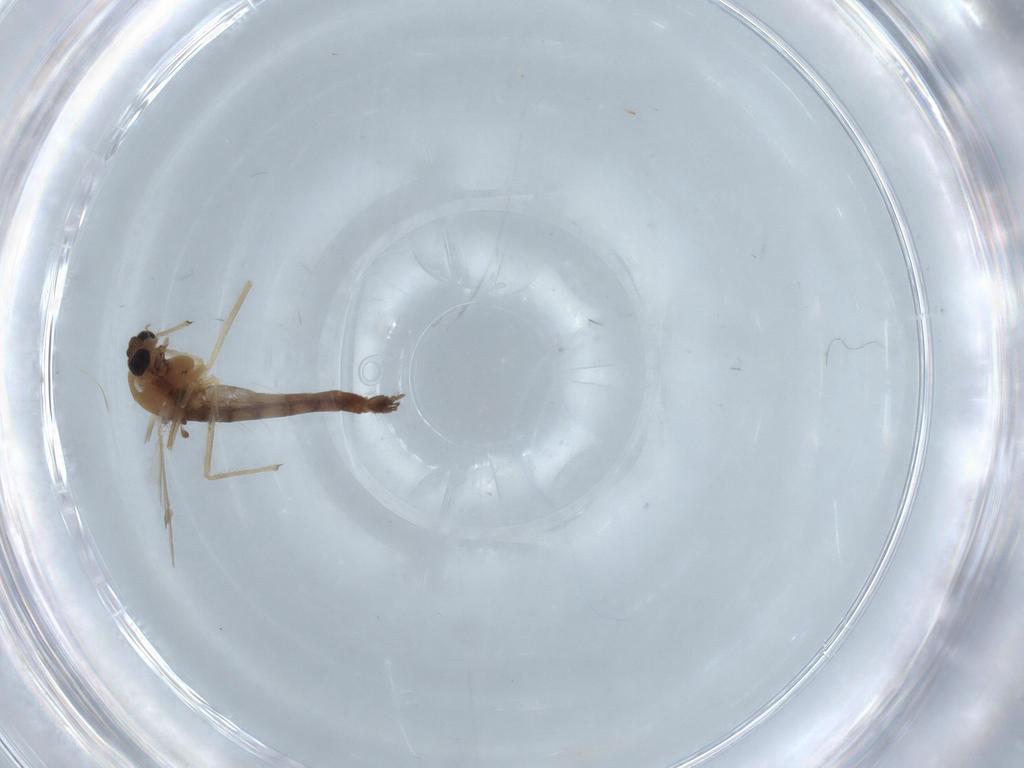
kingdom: Animalia
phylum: Arthropoda
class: Insecta
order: Diptera
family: Chironomidae
